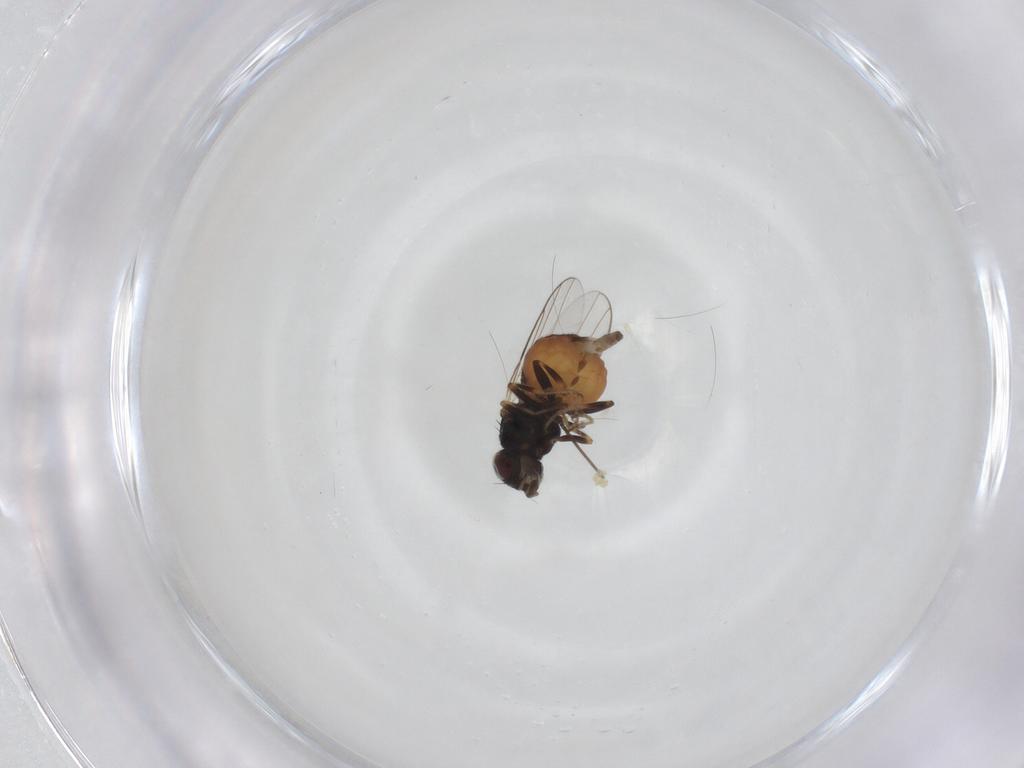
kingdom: Animalia
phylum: Arthropoda
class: Insecta
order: Diptera
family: Chloropidae
